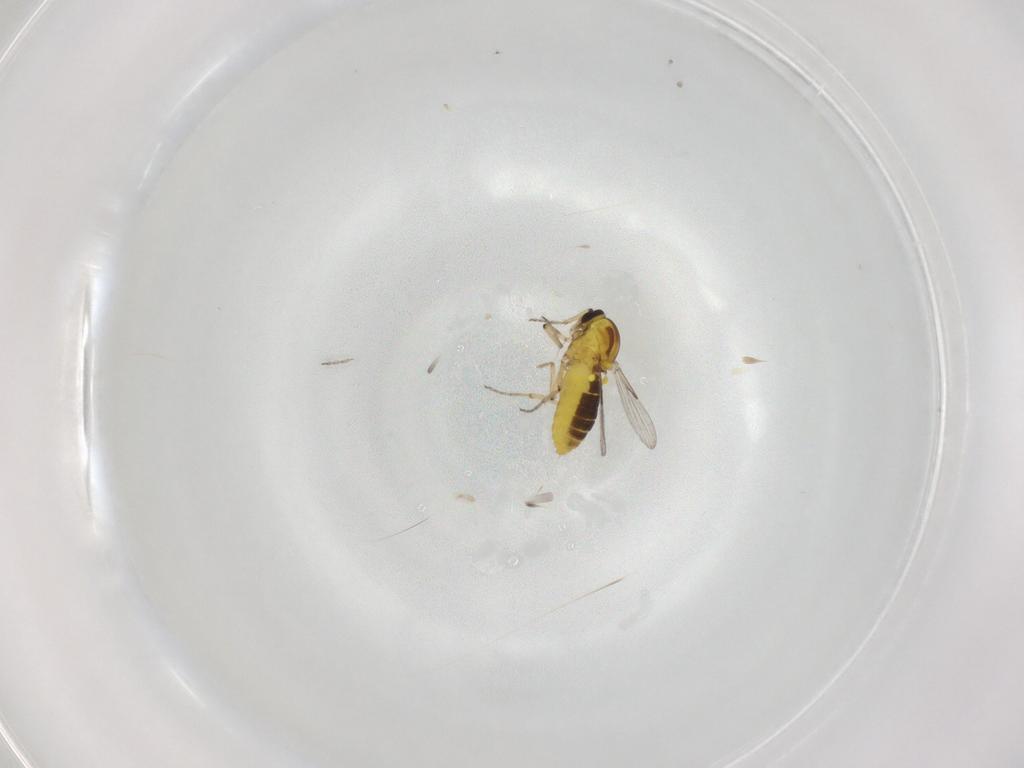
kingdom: Animalia
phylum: Arthropoda
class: Insecta
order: Diptera
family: Ceratopogonidae
